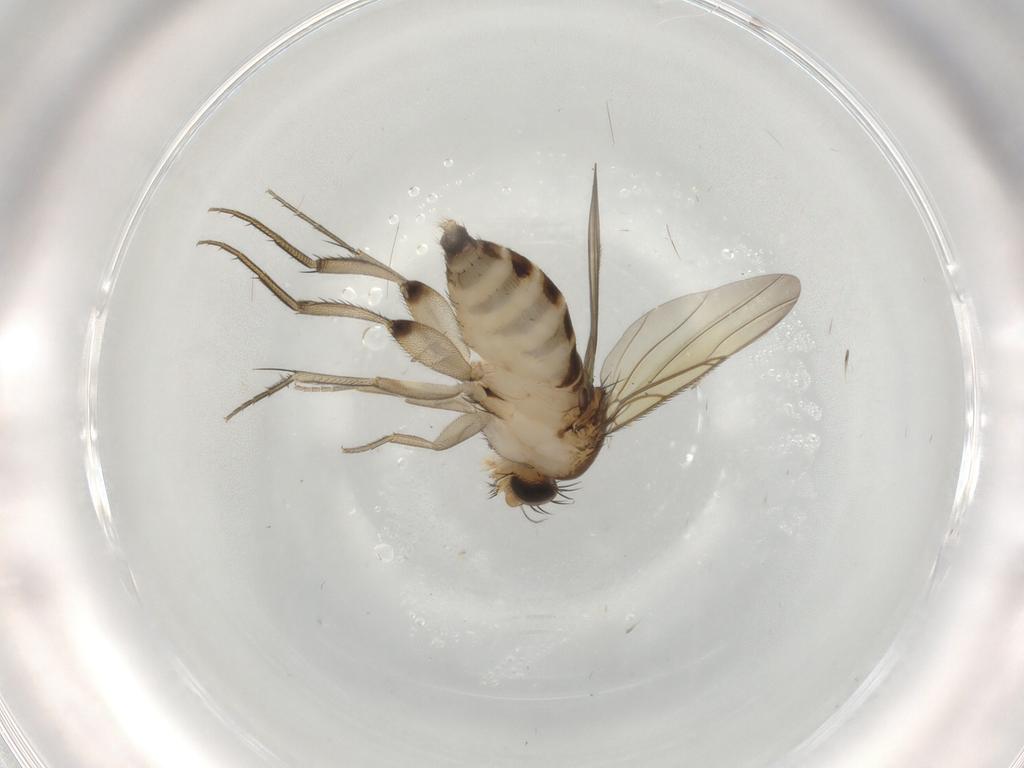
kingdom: Animalia
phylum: Arthropoda
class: Insecta
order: Diptera
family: Phoridae
